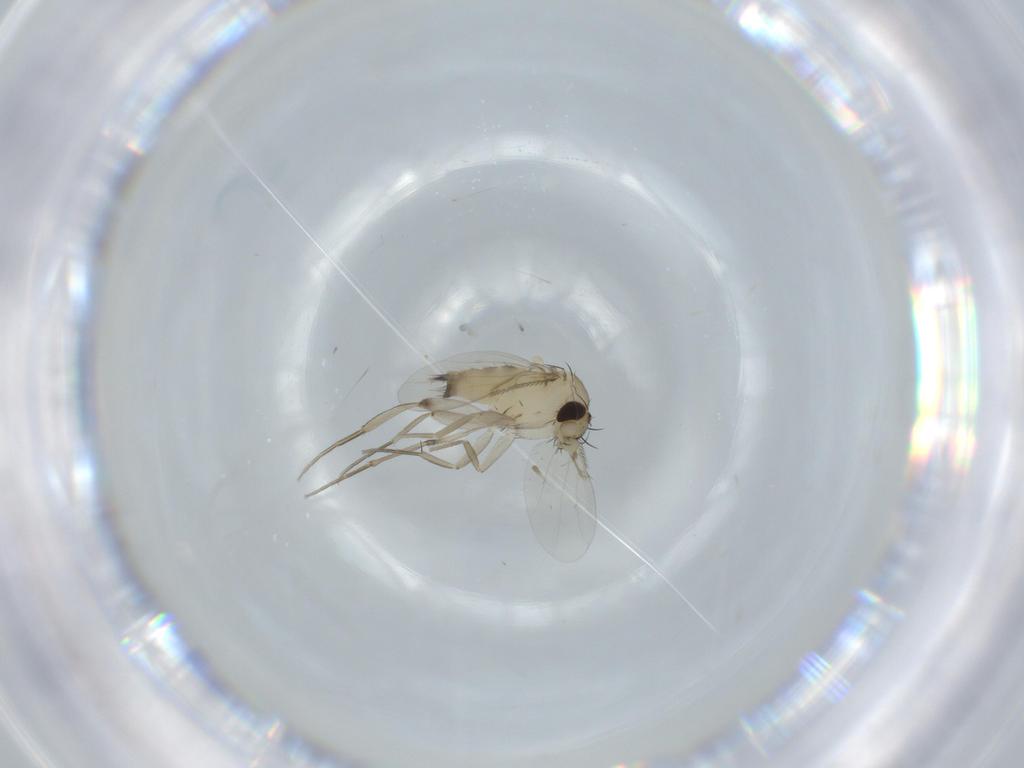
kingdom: Animalia
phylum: Arthropoda
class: Insecta
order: Diptera
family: Phoridae
